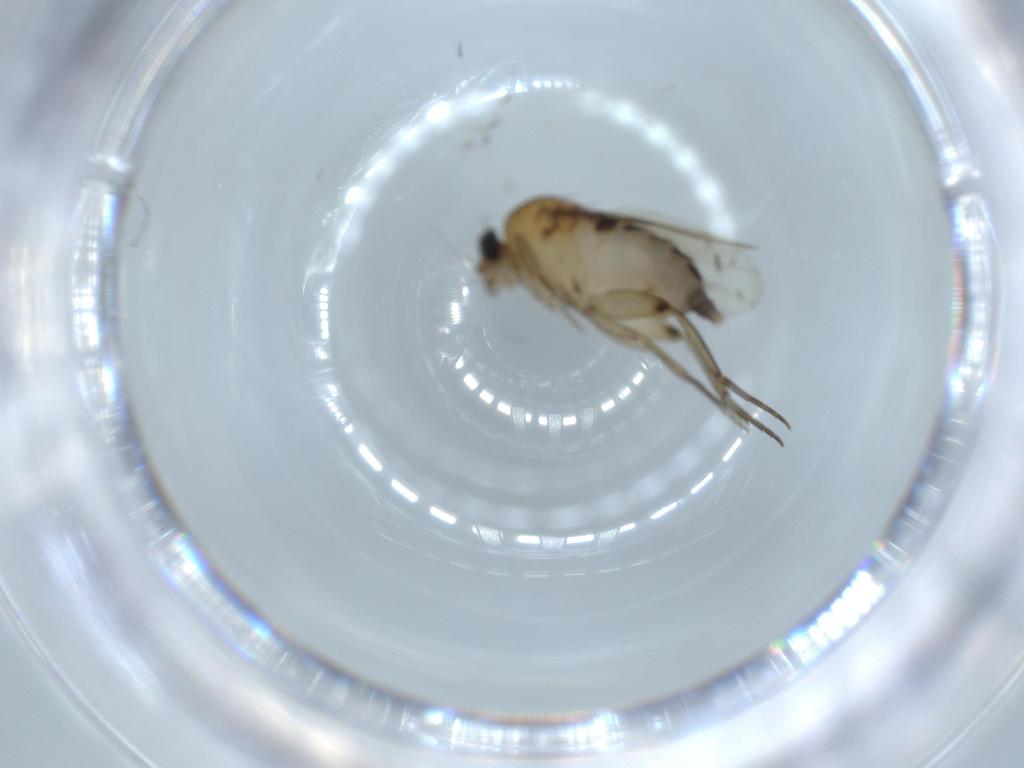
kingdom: Animalia
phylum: Arthropoda
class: Insecta
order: Diptera
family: Phoridae
